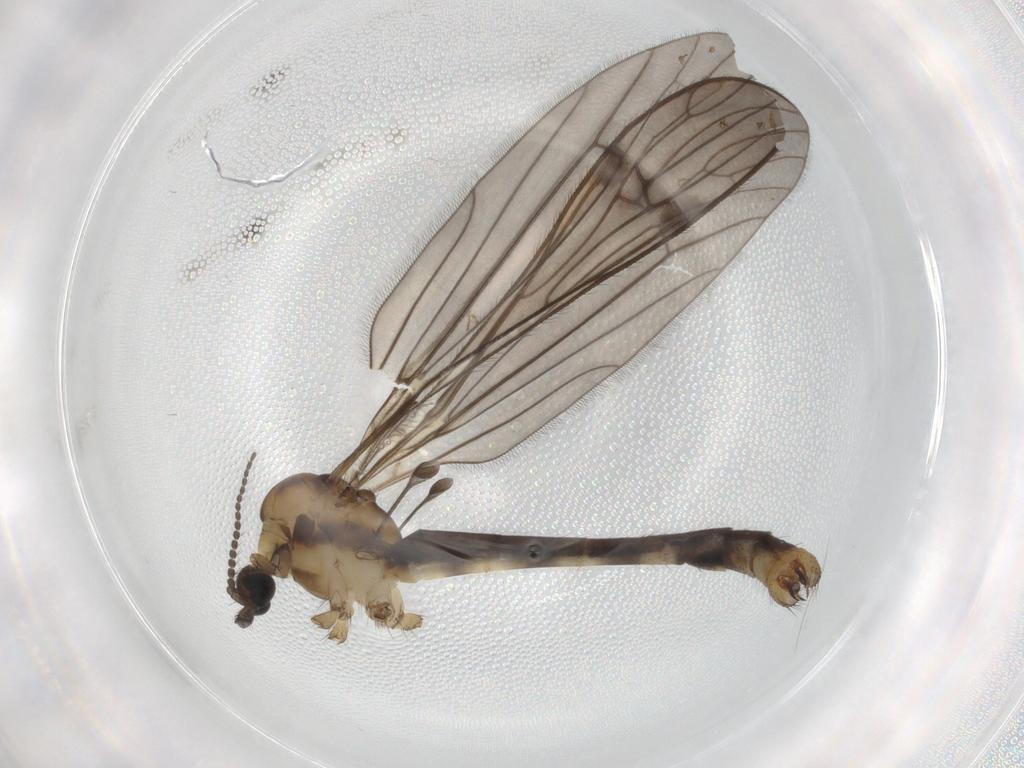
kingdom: Animalia
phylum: Arthropoda
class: Insecta
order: Diptera
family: Limoniidae
